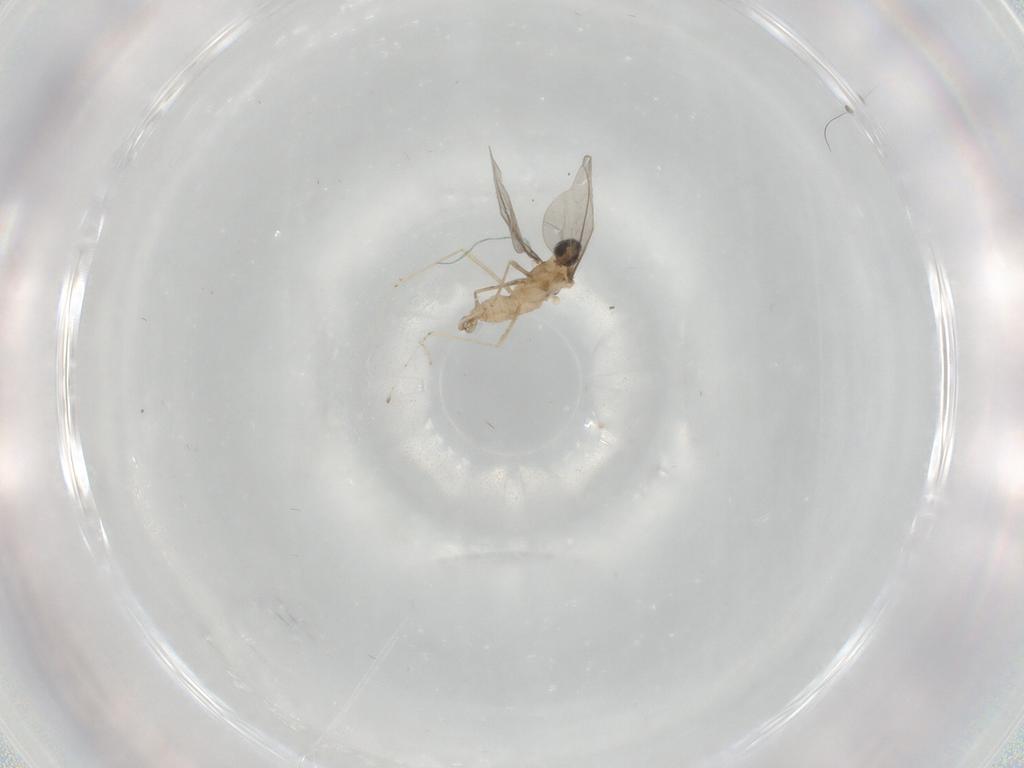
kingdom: Animalia
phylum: Arthropoda
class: Insecta
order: Diptera
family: Cecidomyiidae
